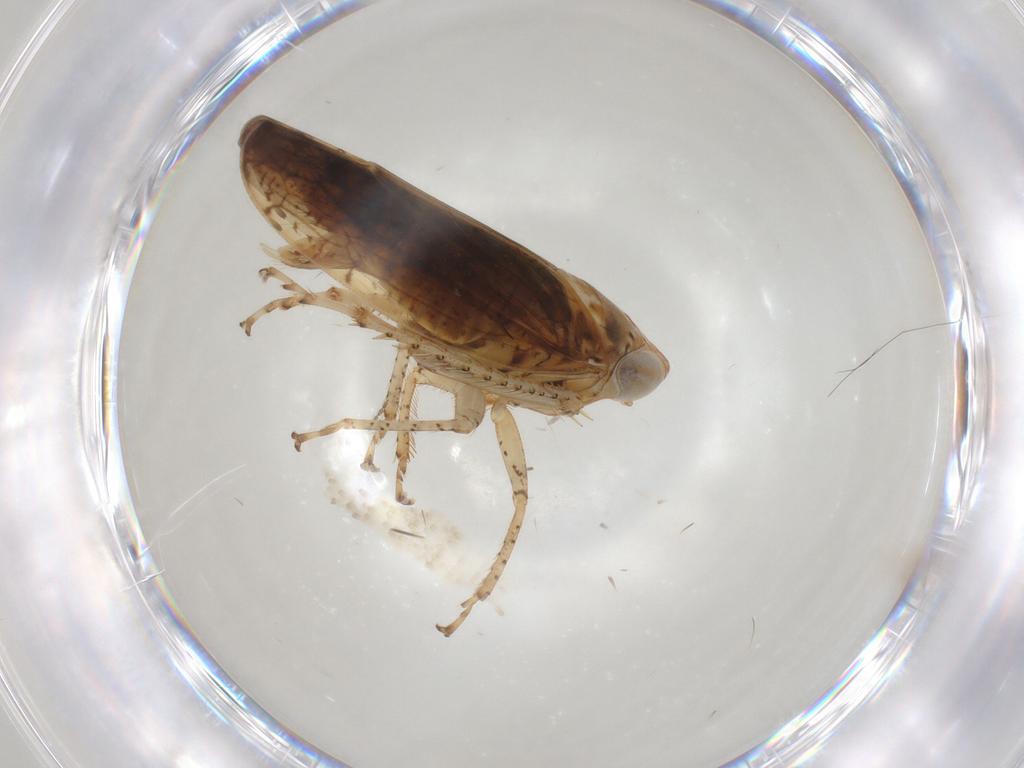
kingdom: Animalia
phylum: Arthropoda
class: Insecta
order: Hemiptera
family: Cicadellidae
